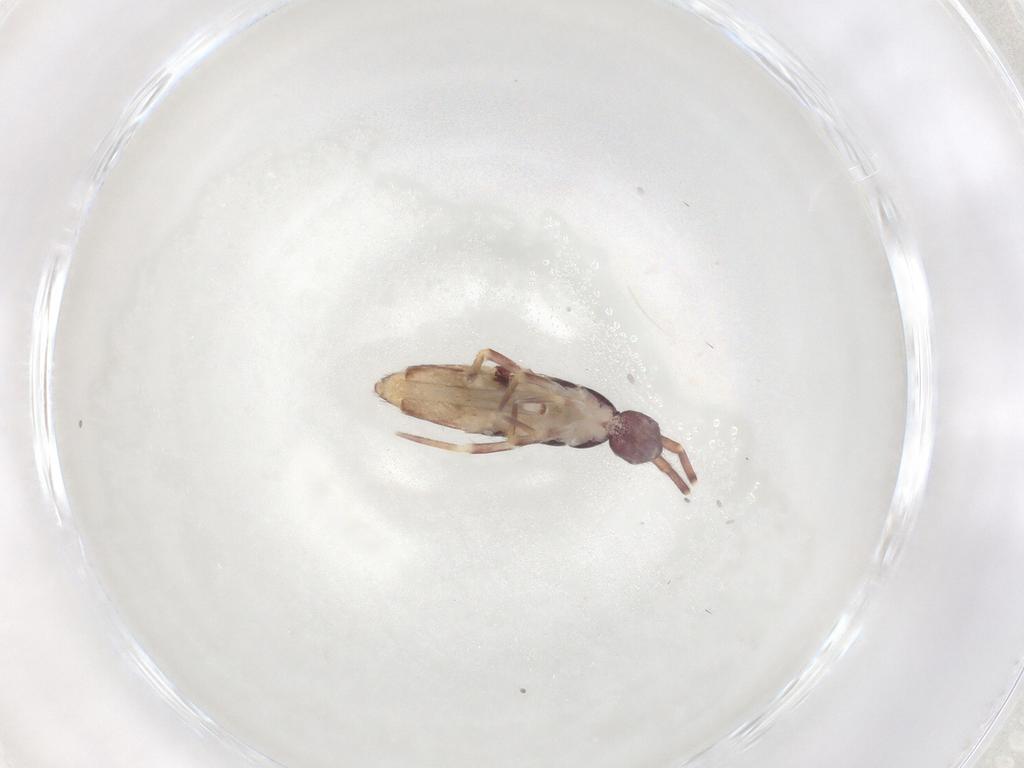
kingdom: Animalia
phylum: Arthropoda
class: Collembola
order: Entomobryomorpha
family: Entomobryidae
